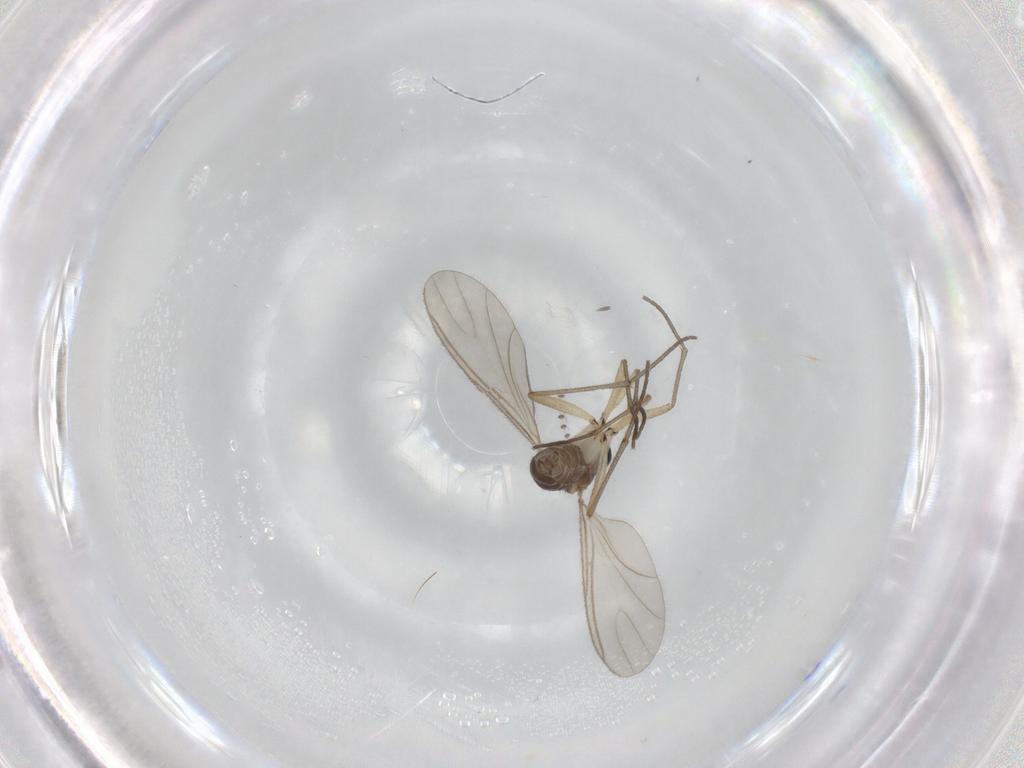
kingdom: Animalia
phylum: Arthropoda
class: Insecta
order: Diptera
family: Sciaridae
